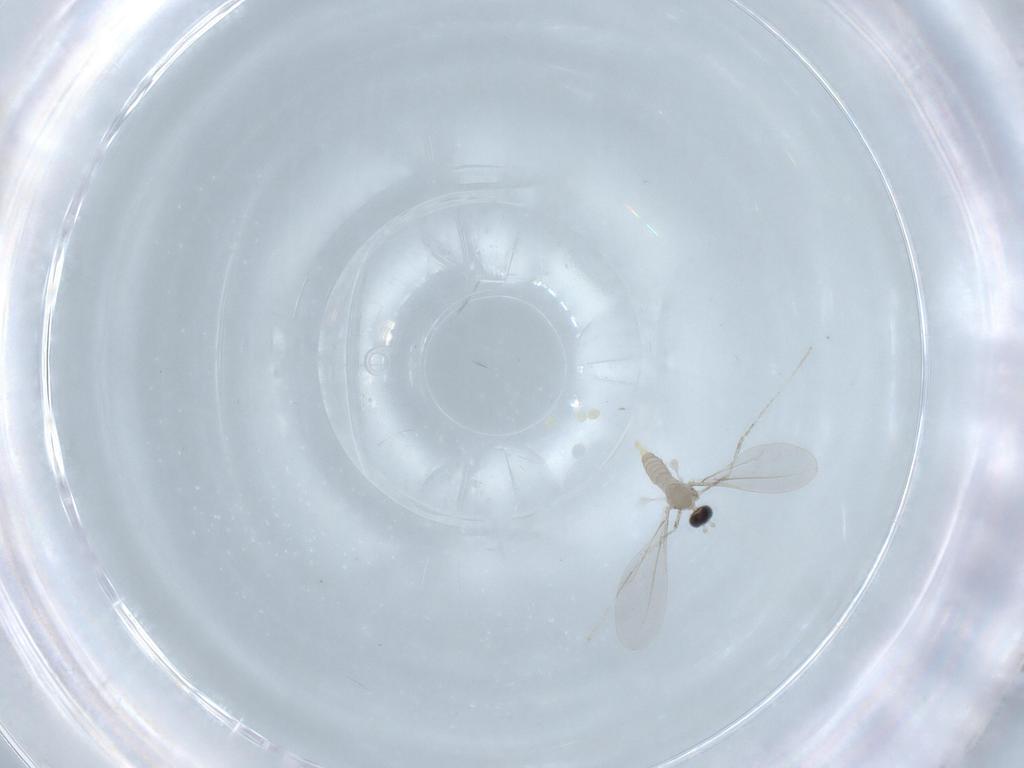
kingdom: Animalia
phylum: Arthropoda
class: Insecta
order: Diptera
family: Cecidomyiidae
